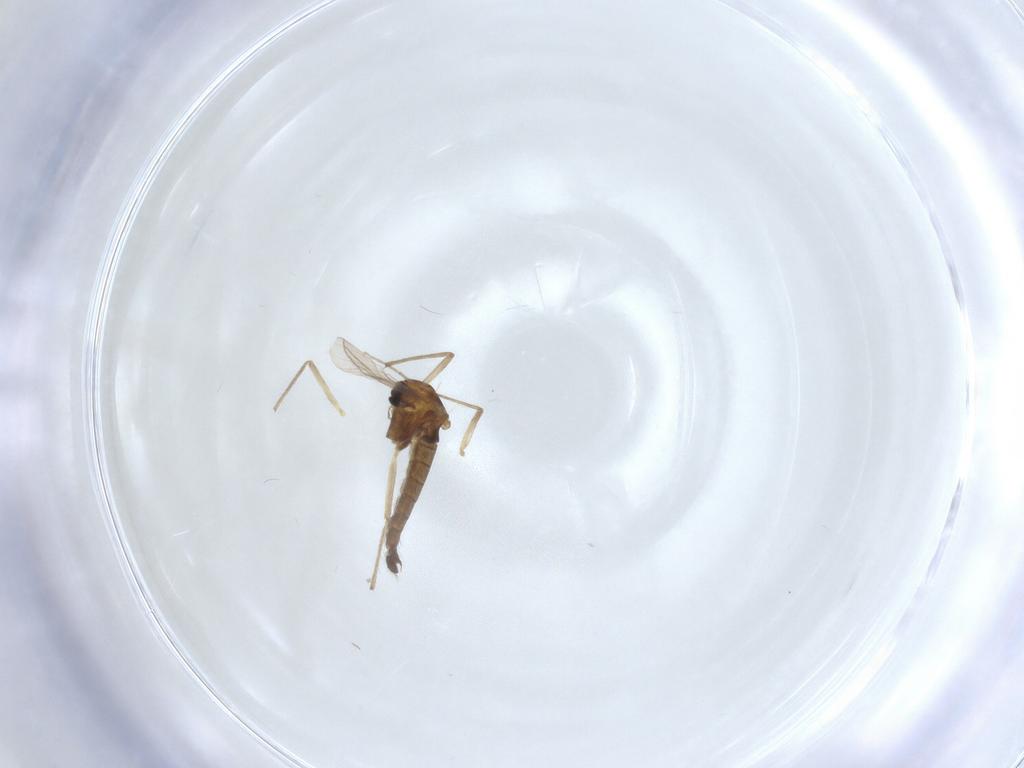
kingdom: Animalia
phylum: Arthropoda
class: Insecta
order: Diptera
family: Chironomidae
